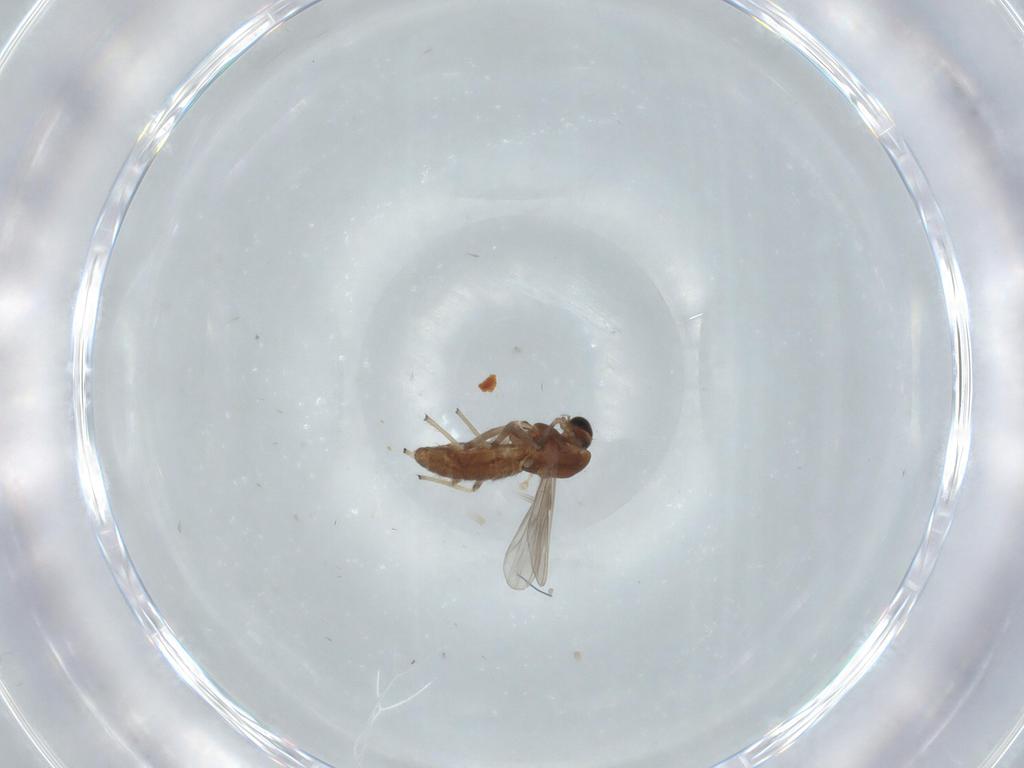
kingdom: Animalia
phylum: Arthropoda
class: Insecta
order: Diptera
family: Chironomidae
